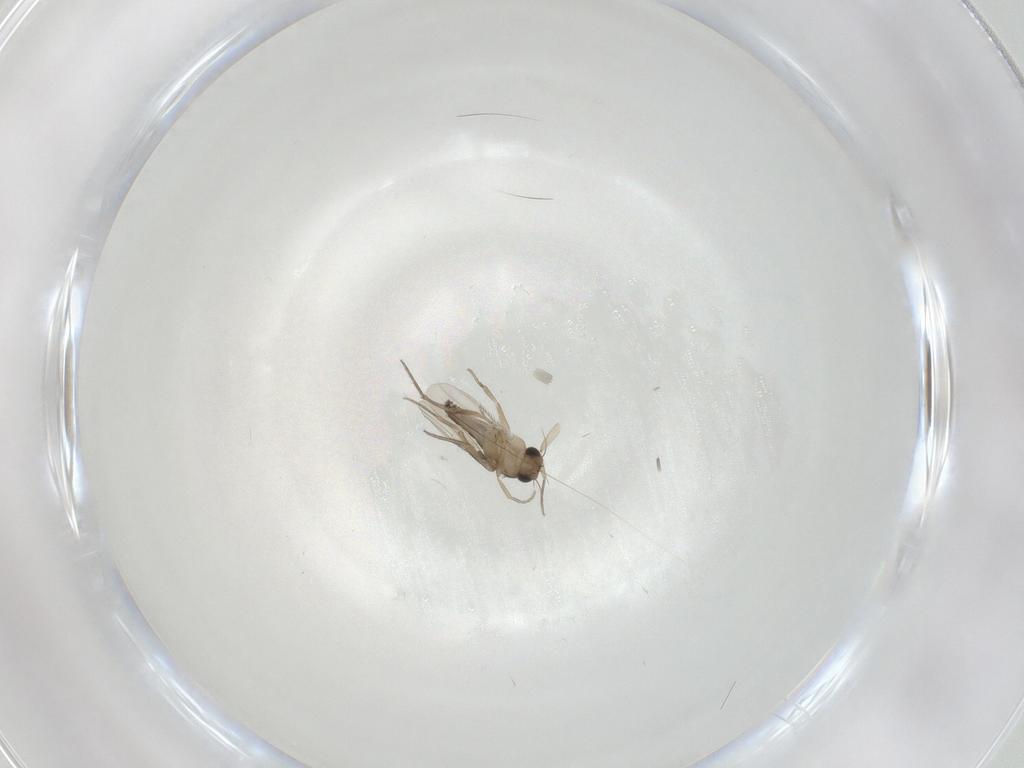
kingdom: Animalia
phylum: Arthropoda
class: Insecta
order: Diptera
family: Phoridae
